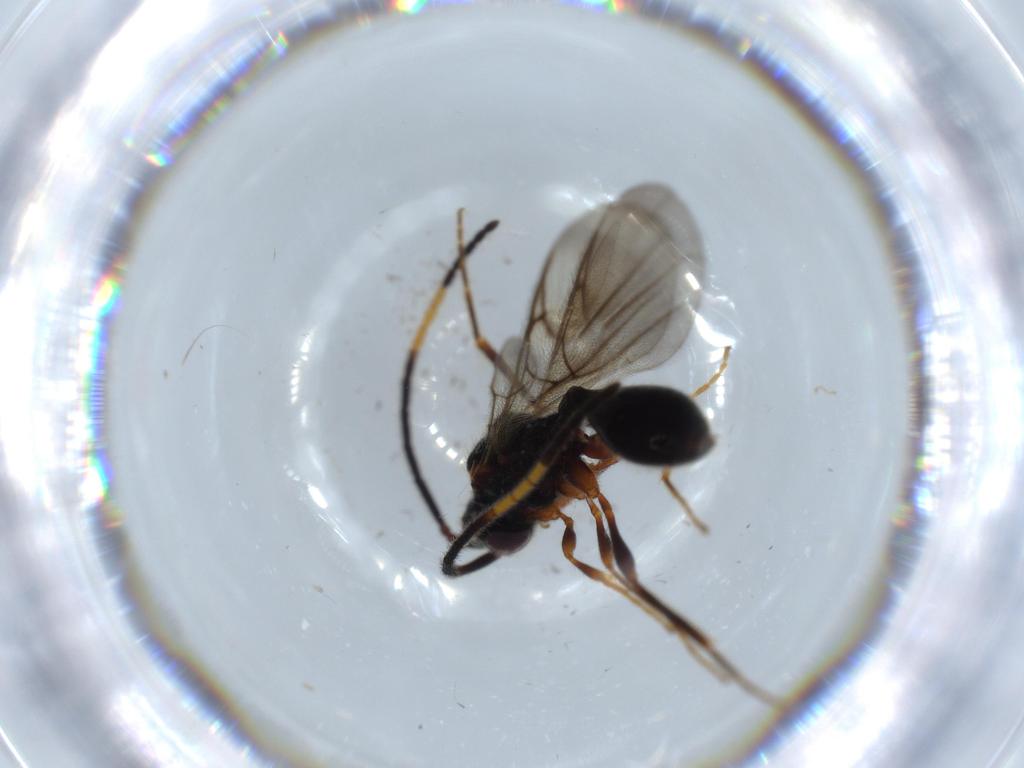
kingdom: Animalia
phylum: Arthropoda
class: Insecta
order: Hymenoptera
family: Diapriidae
